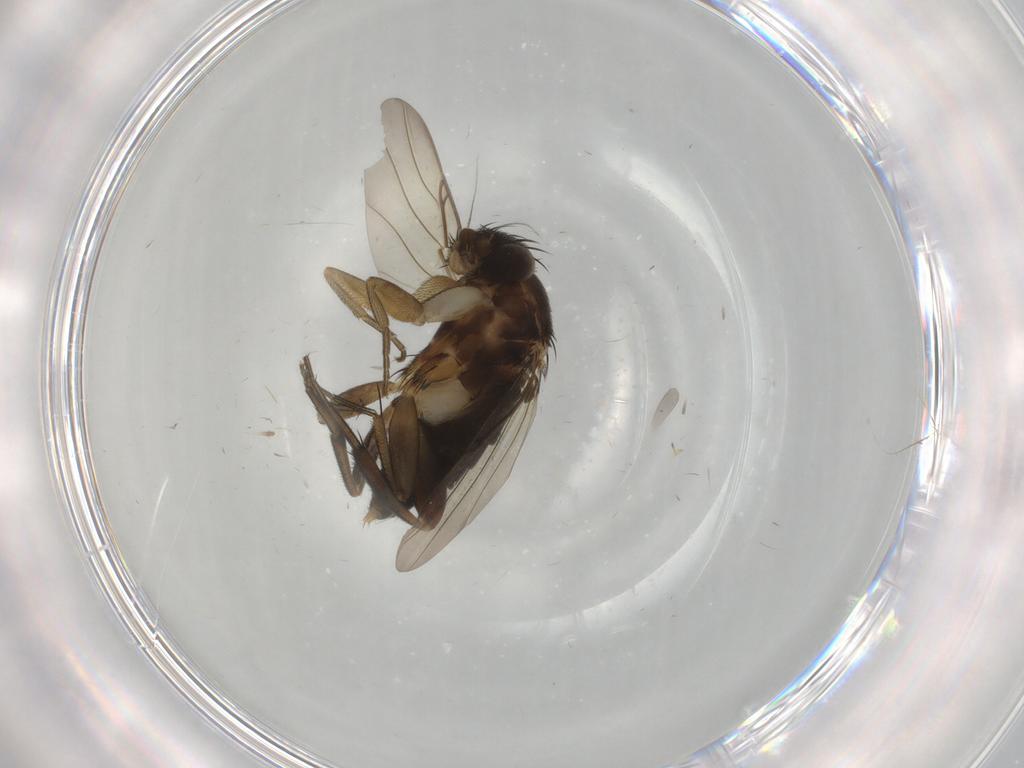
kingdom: Animalia
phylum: Arthropoda
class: Insecta
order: Diptera
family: Phoridae
